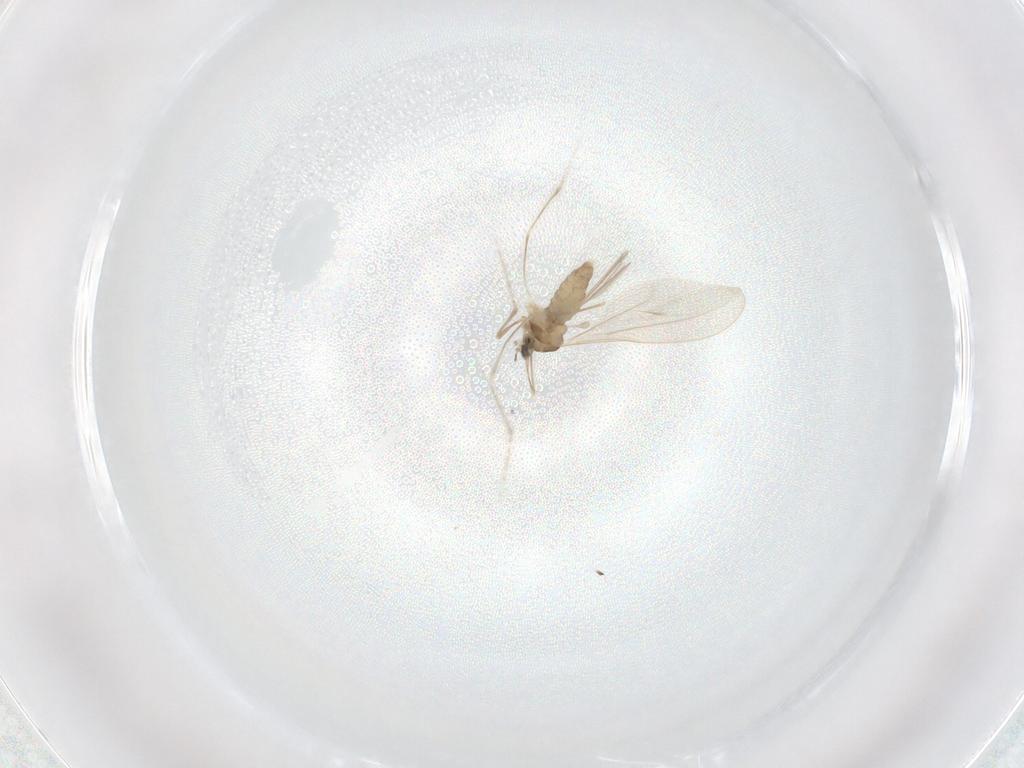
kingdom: Animalia
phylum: Arthropoda
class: Insecta
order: Diptera
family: Cecidomyiidae
